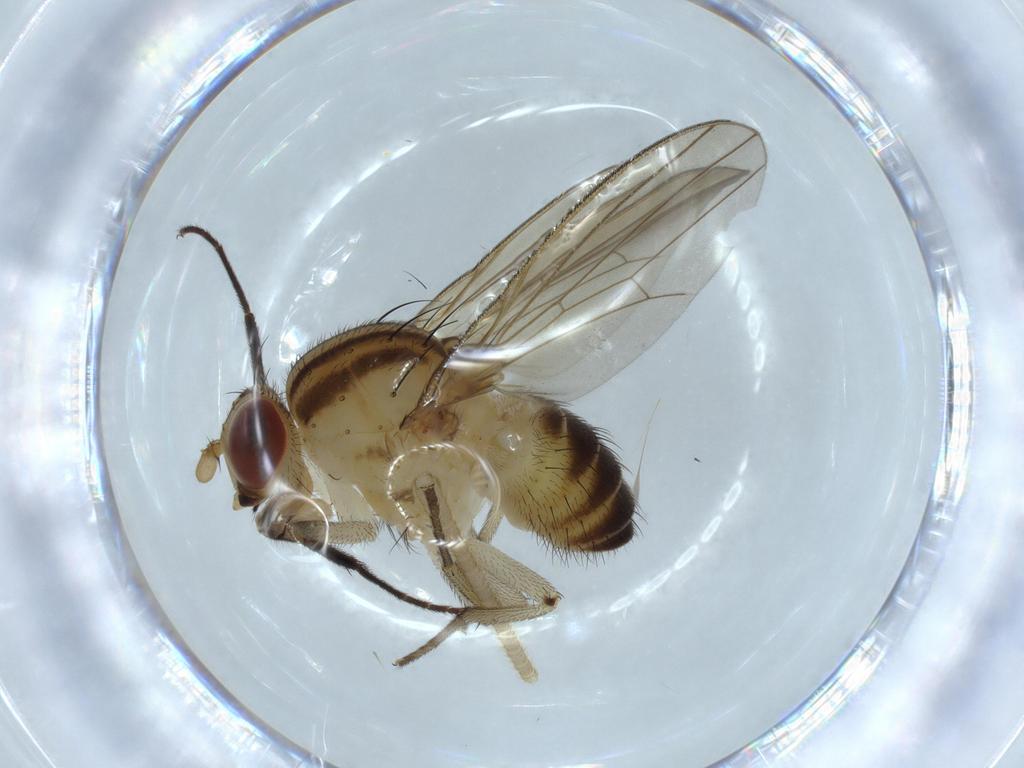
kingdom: Animalia
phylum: Arthropoda
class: Insecta
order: Diptera
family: Lauxaniidae
